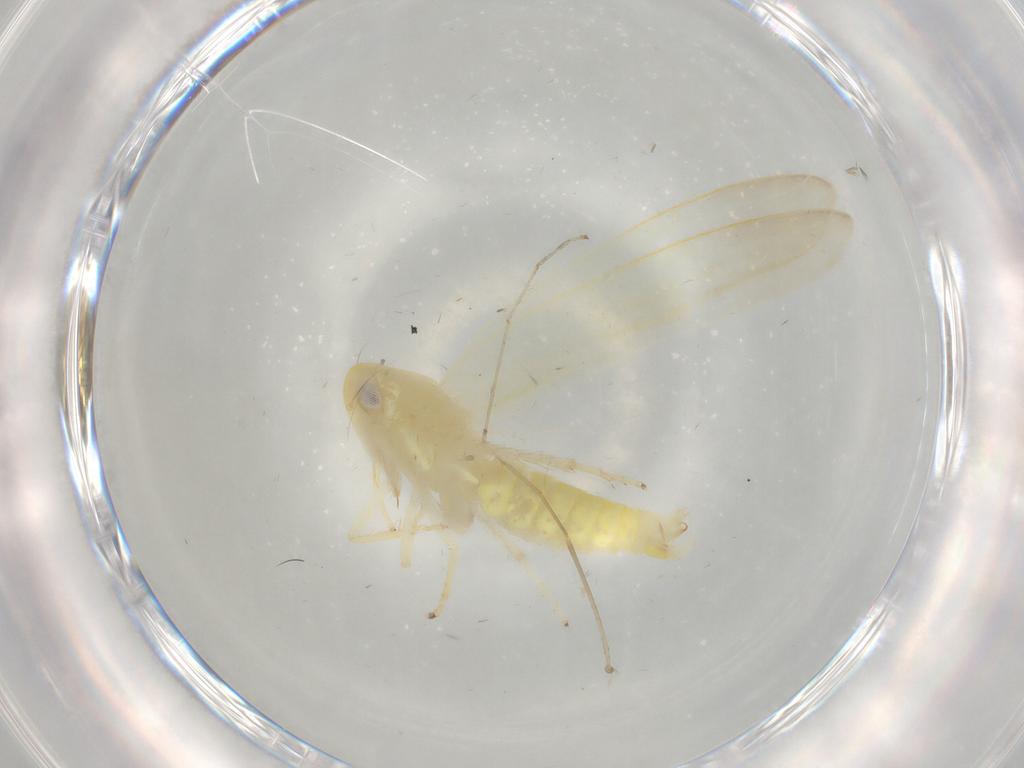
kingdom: Animalia
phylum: Arthropoda
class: Insecta
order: Hemiptera
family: Cicadellidae
